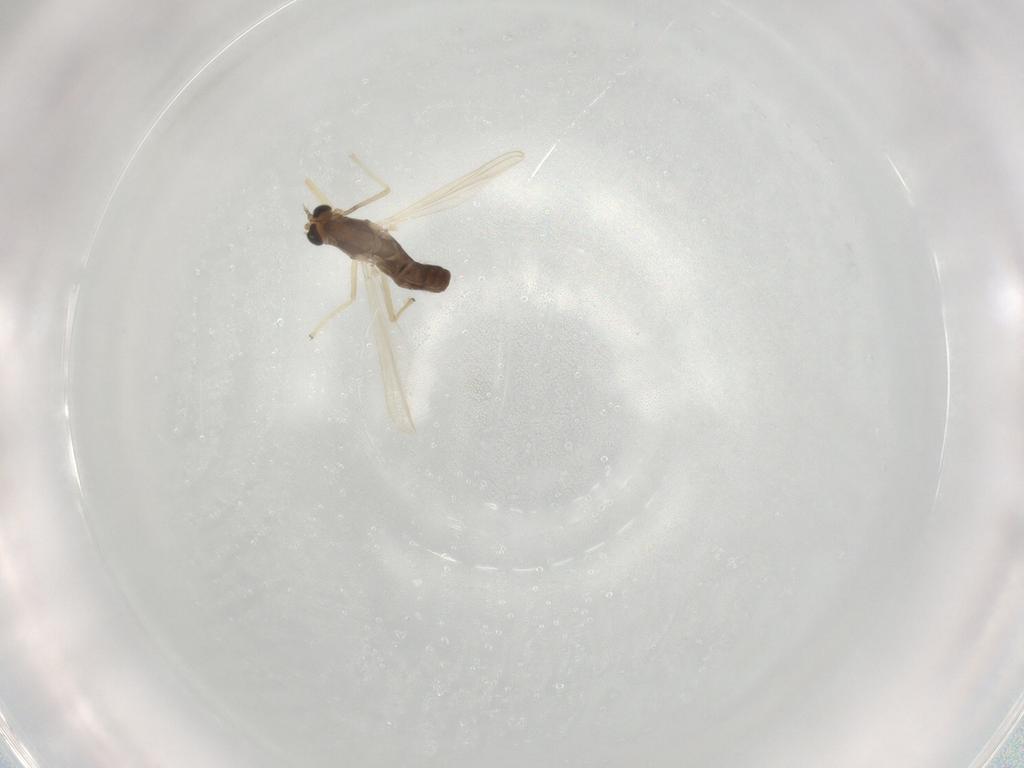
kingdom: Animalia
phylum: Arthropoda
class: Insecta
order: Diptera
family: Chironomidae
